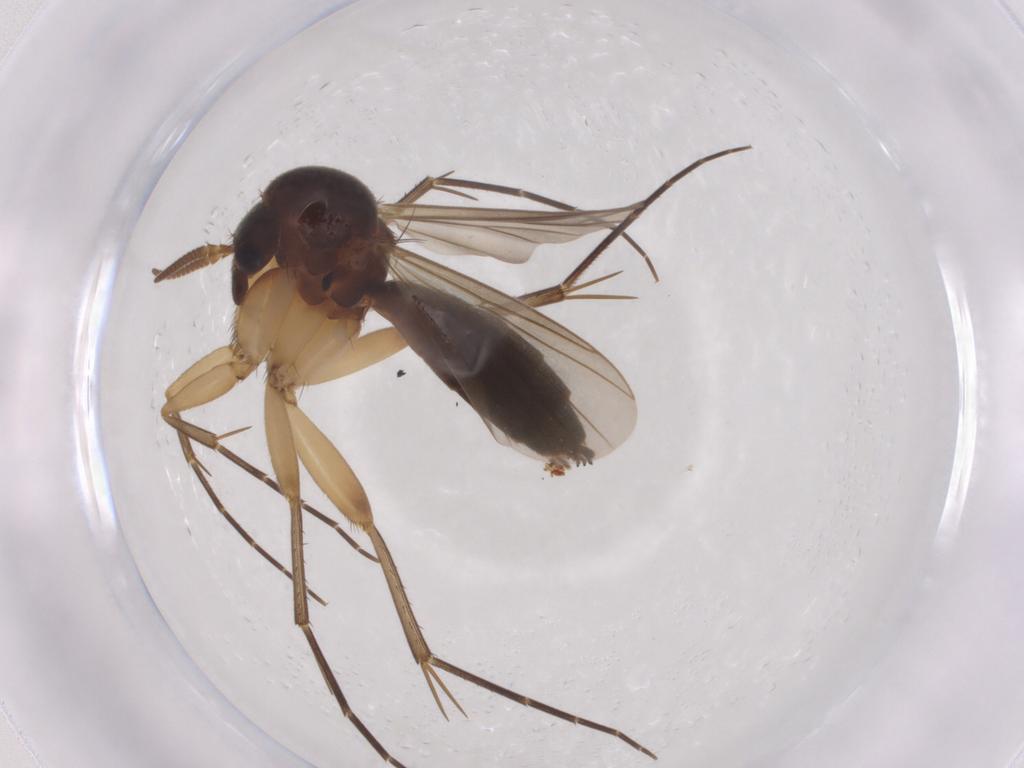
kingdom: Animalia
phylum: Arthropoda
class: Insecta
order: Diptera
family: Mycetophilidae
